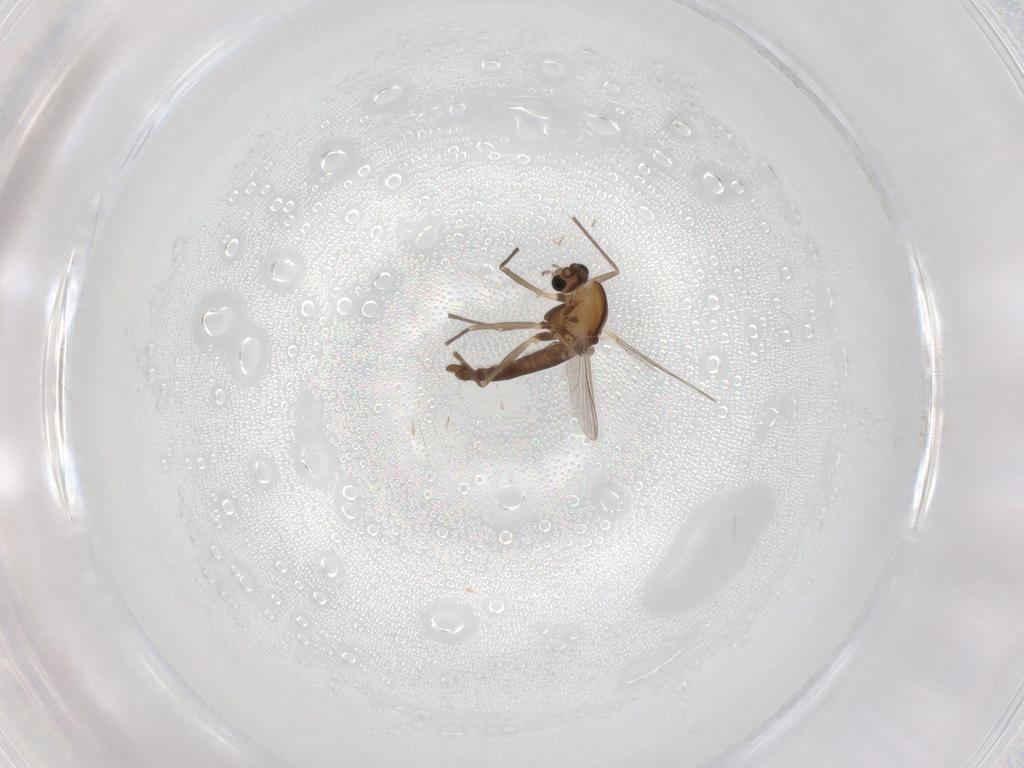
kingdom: Animalia
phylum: Arthropoda
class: Insecta
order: Diptera
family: Chironomidae
